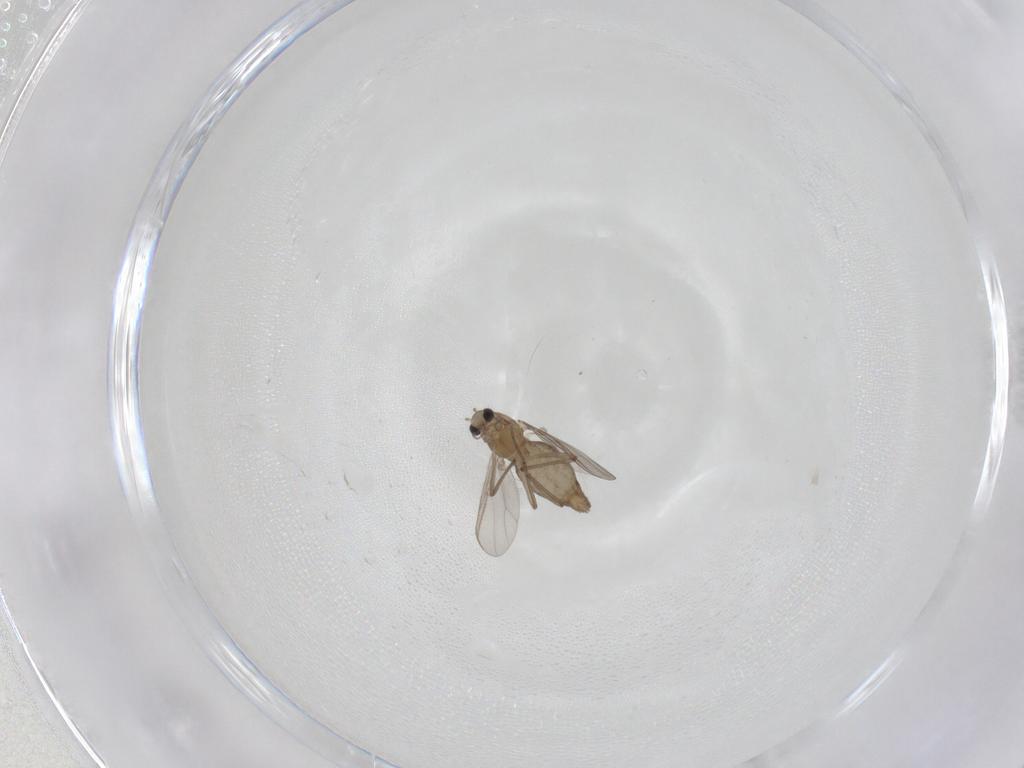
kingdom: Animalia
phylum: Arthropoda
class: Insecta
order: Diptera
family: Chironomidae
